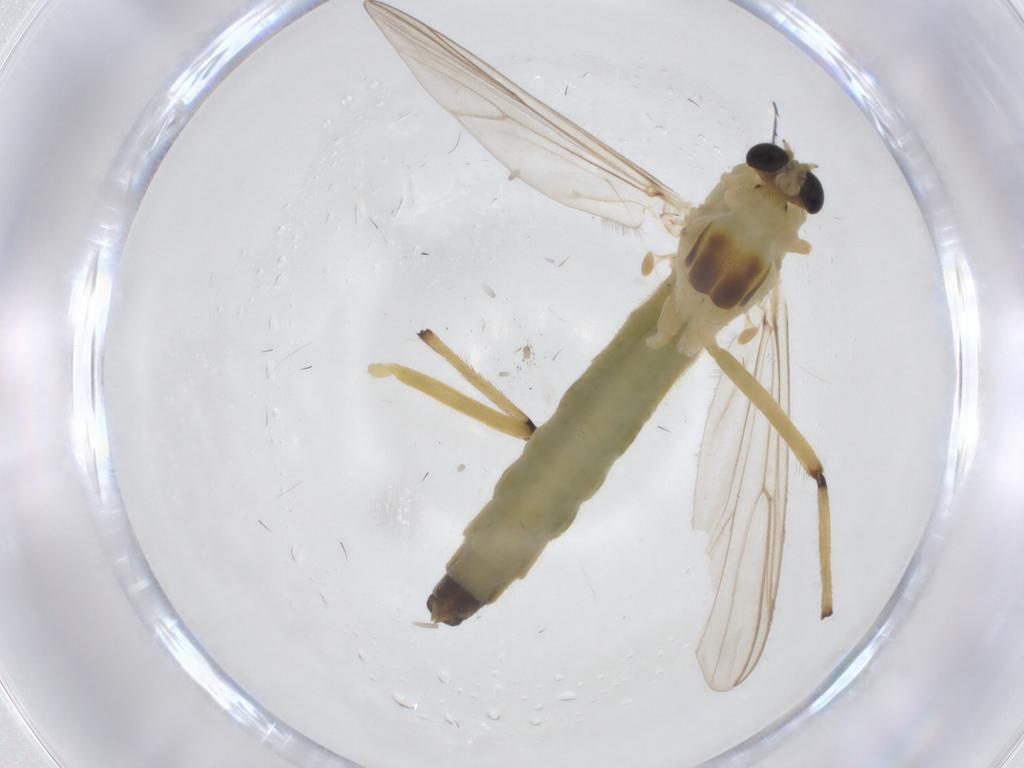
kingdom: Animalia
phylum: Arthropoda
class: Insecta
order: Diptera
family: Chironomidae
